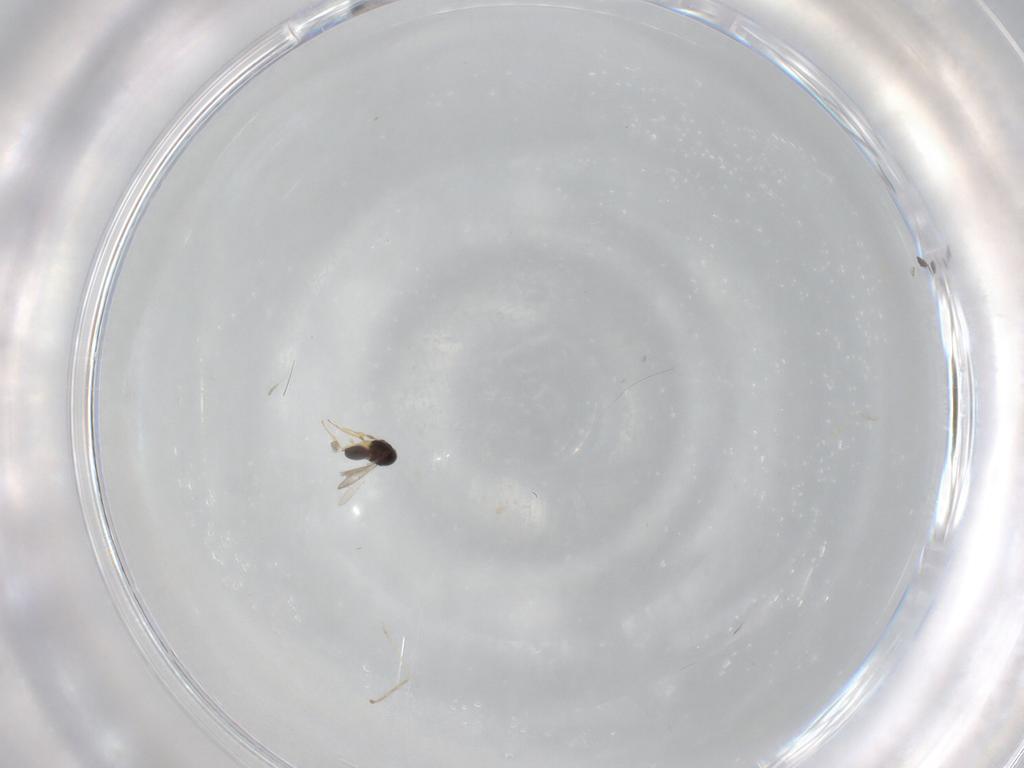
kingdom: Animalia
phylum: Arthropoda
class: Insecta
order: Hymenoptera
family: Scelionidae
